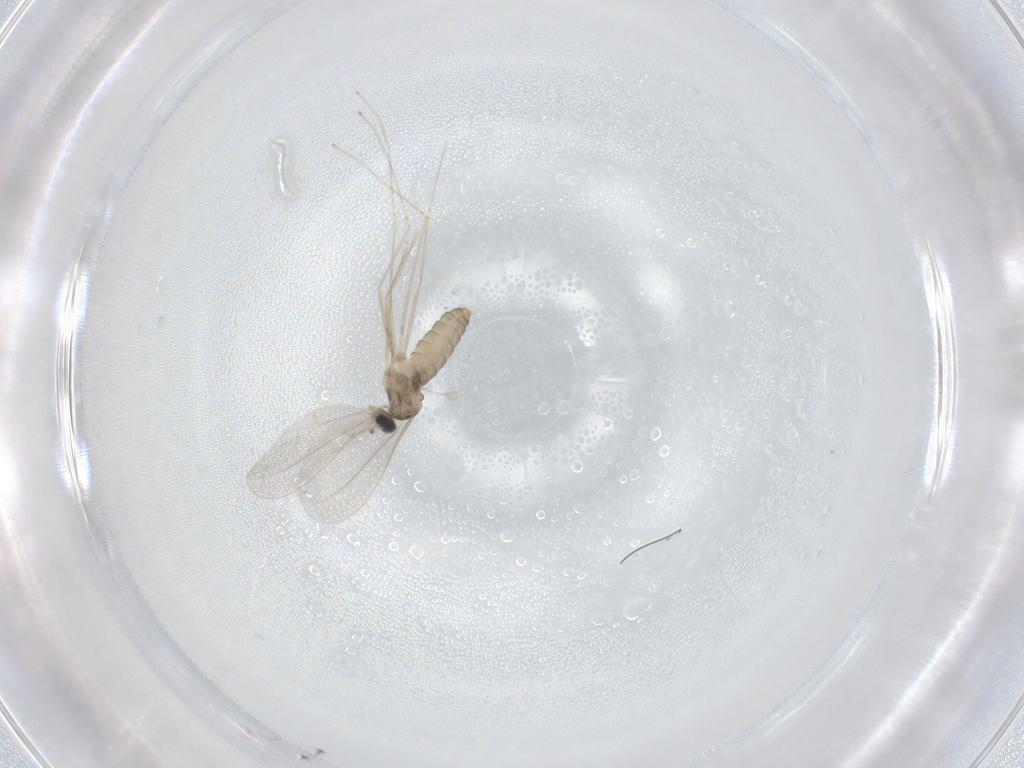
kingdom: Animalia
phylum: Arthropoda
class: Insecta
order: Diptera
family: Cecidomyiidae
